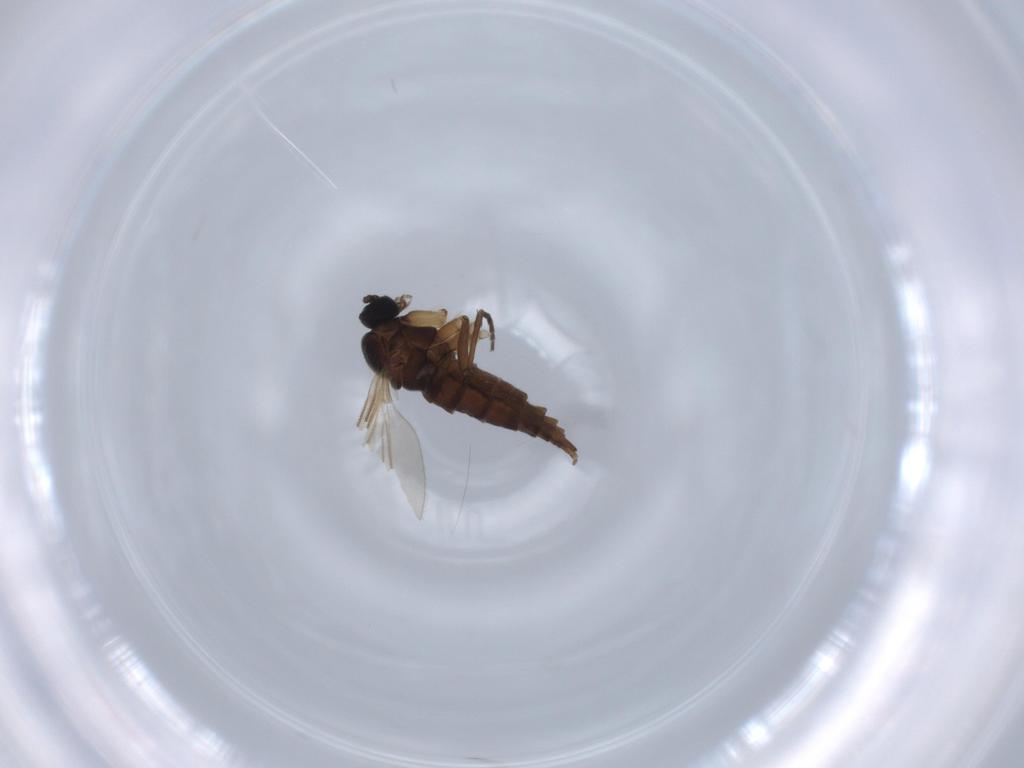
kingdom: Animalia
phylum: Arthropoda
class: Insecta
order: Diptera
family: Sciaridae
